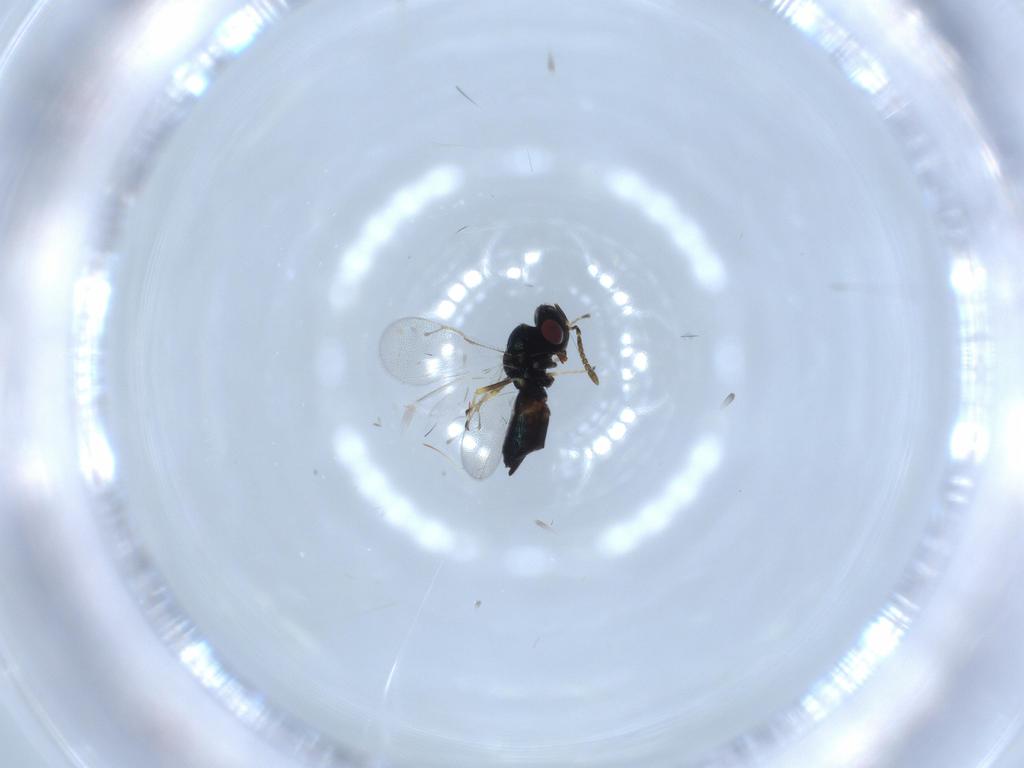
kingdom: Animalia
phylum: Arthropoda
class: Insecta
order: Hymenoptera
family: Pteromalidae
